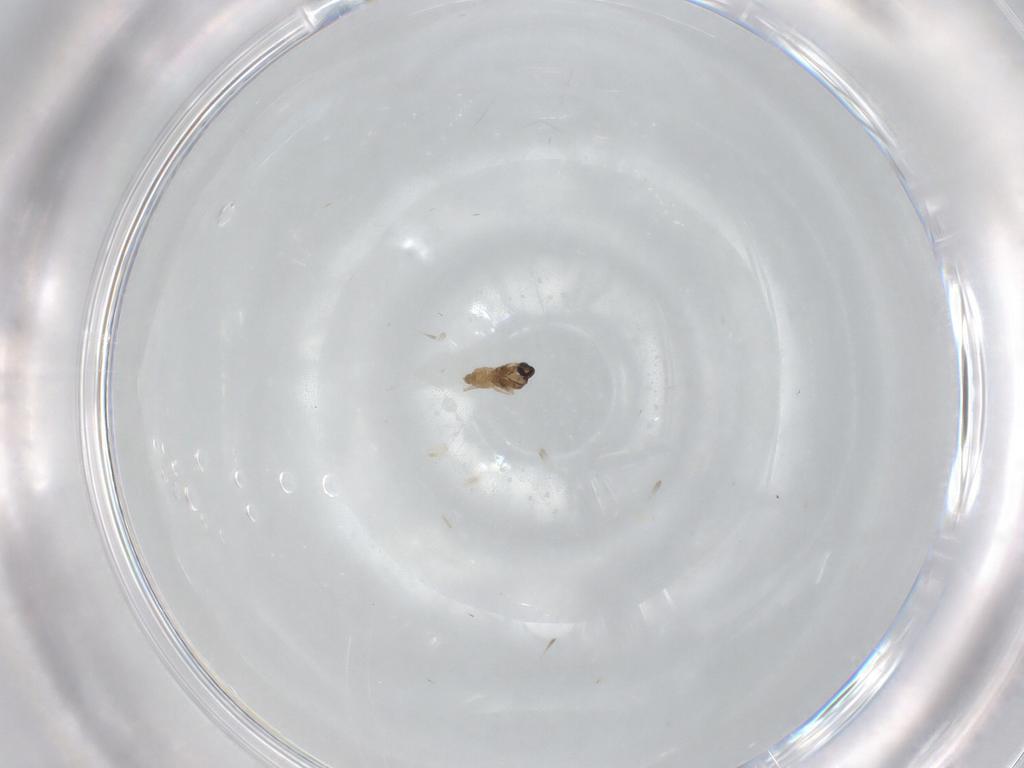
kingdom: Animalia
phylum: Arthropoda
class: Insecta
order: Diptera
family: Cecidomyiidae
